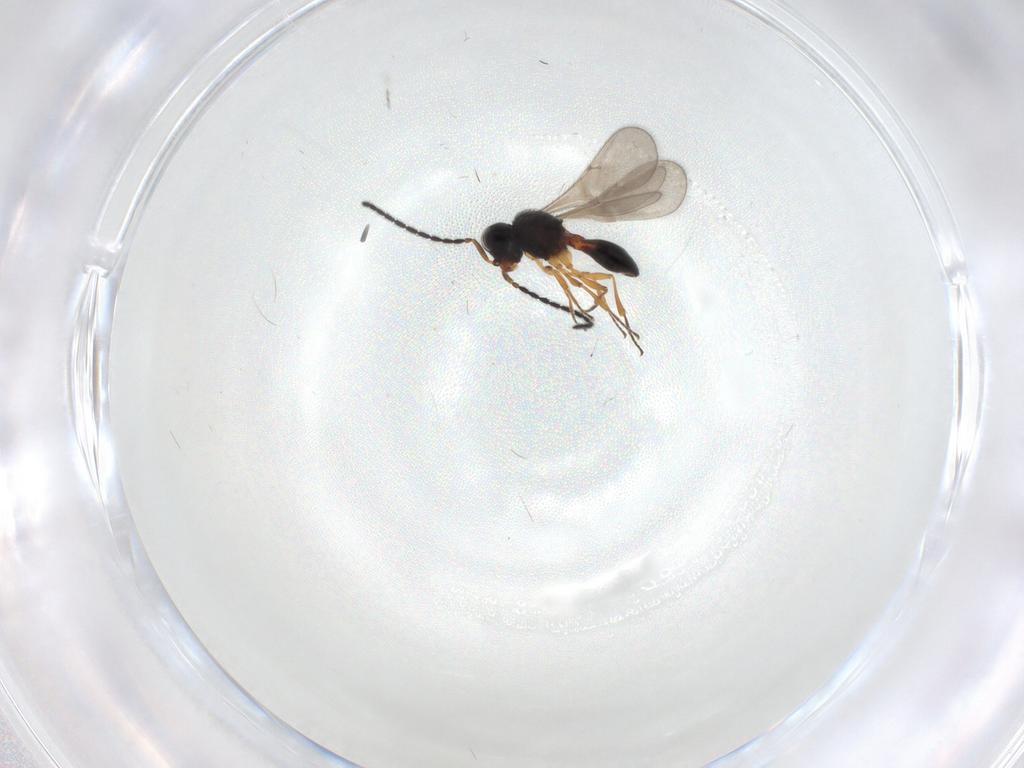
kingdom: Animalia
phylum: Arthropoda
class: Insecta
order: Hymenoptera
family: Scelionidae
